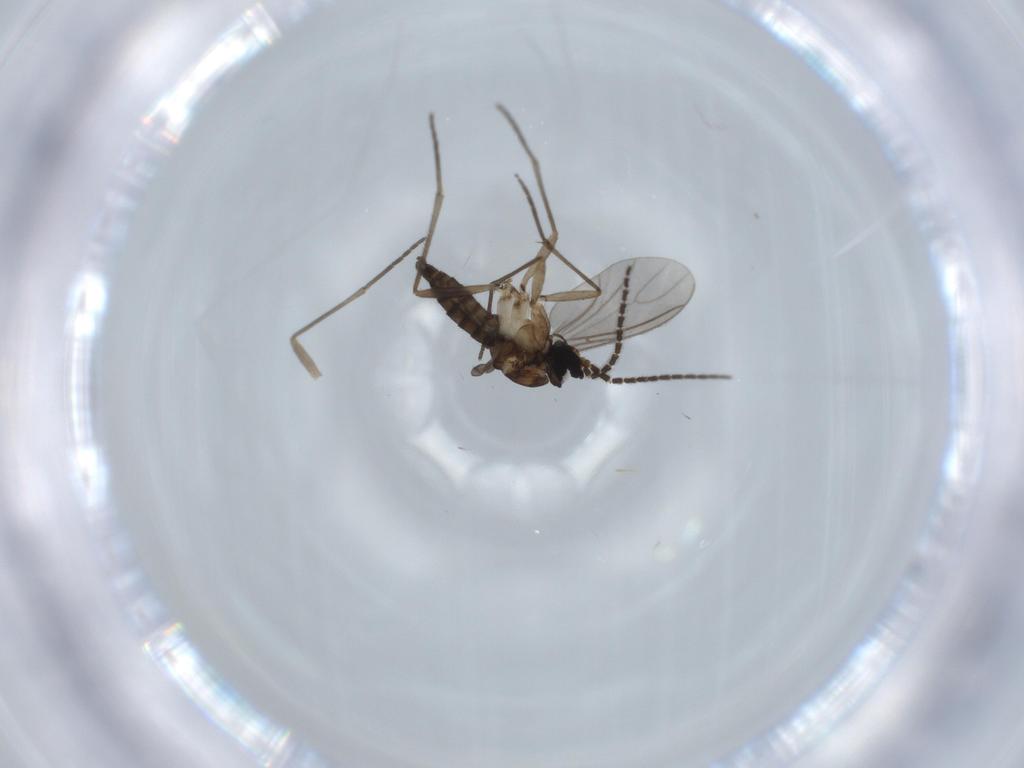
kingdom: Animalia
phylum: Arthropoda
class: Insecta
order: Diptera
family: Sciaridae
